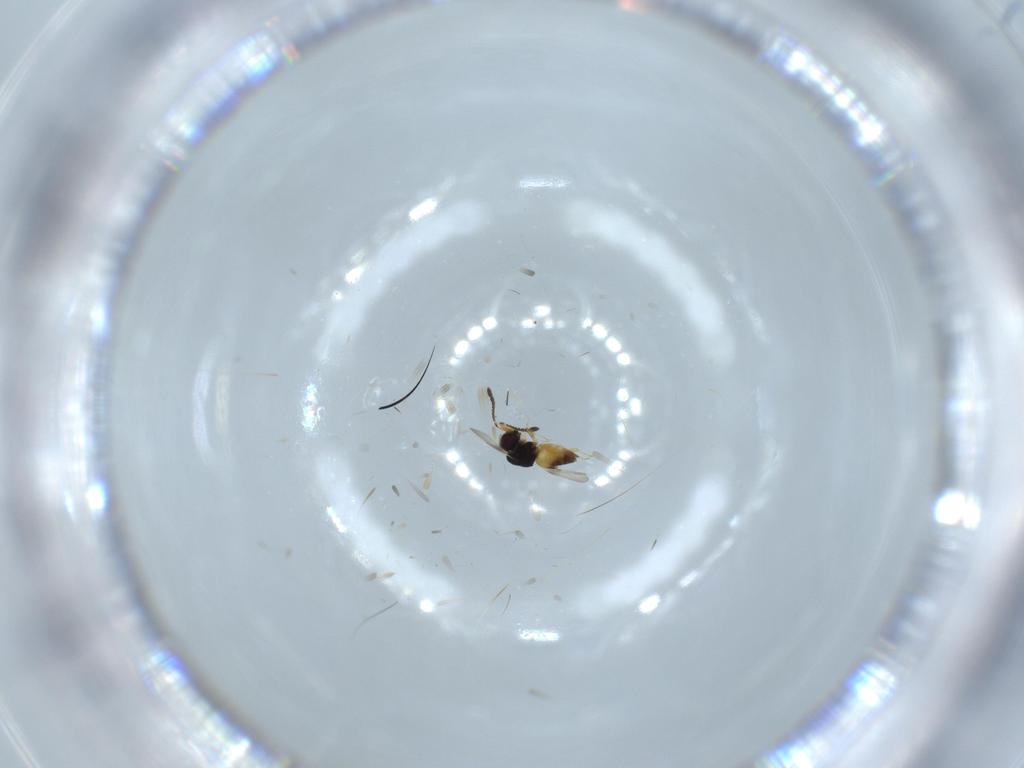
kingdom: Animalia
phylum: Arthropoda
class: Insecta
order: Hymenoptera
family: Ceraphronidae
